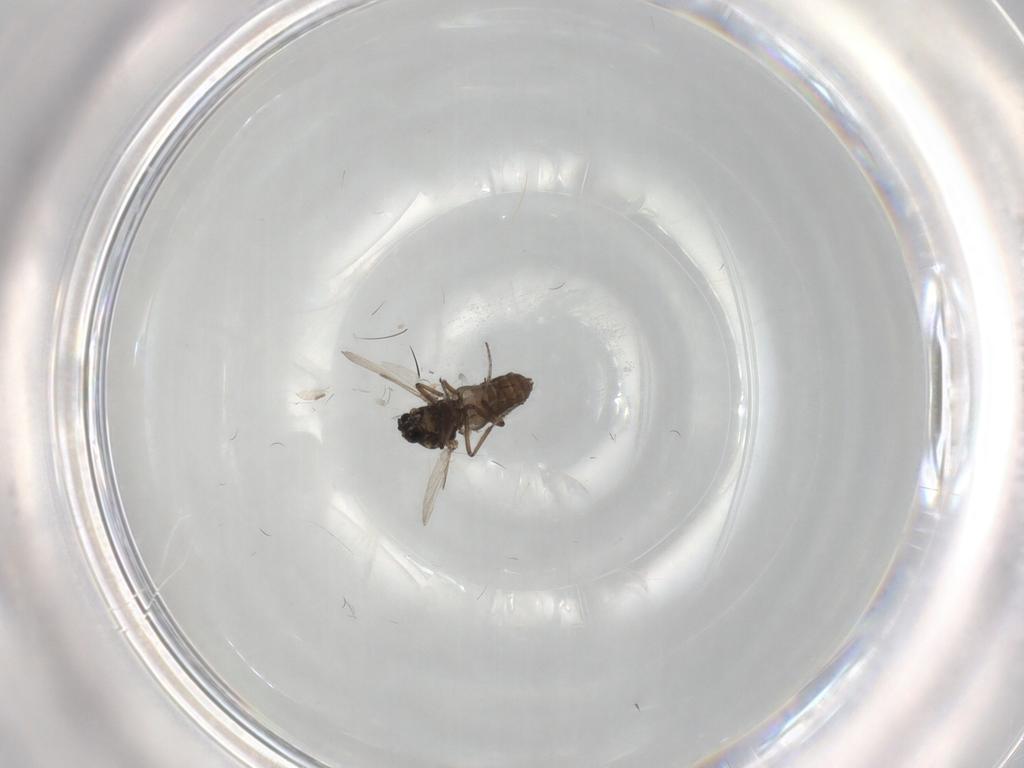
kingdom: Animalia
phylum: Arthropoda
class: Insecta
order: Diptera
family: Ceratopogonidae
